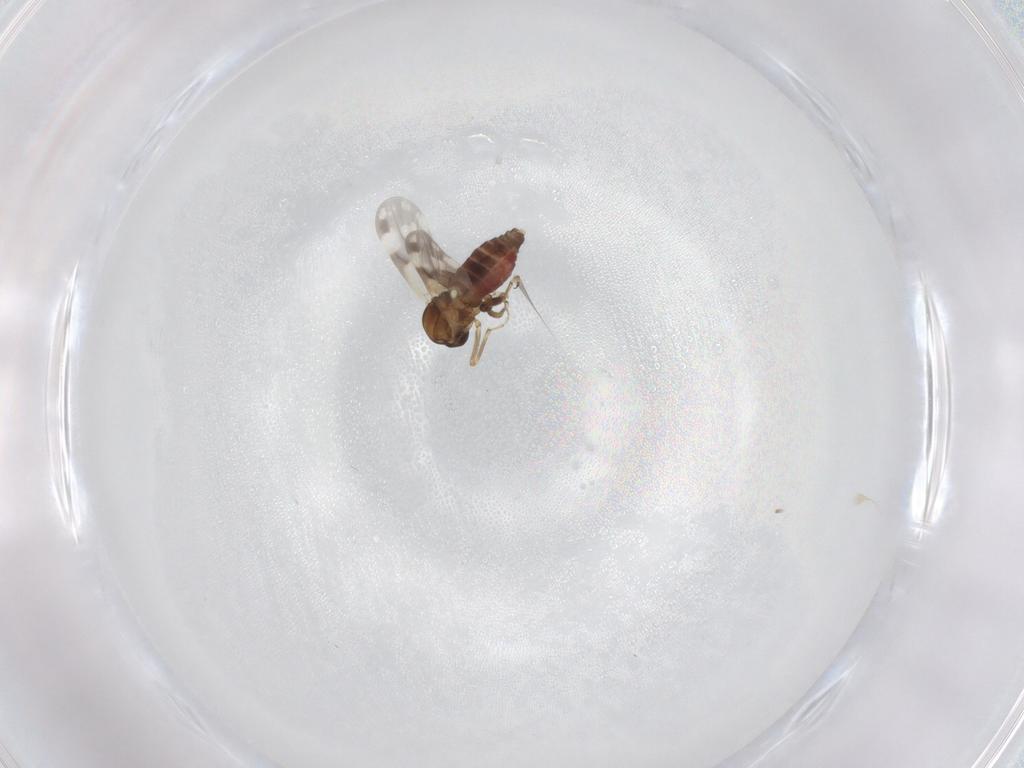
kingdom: Animalia
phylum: Arthropoda
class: Insecta
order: Diptera
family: Ceratopogonidae
